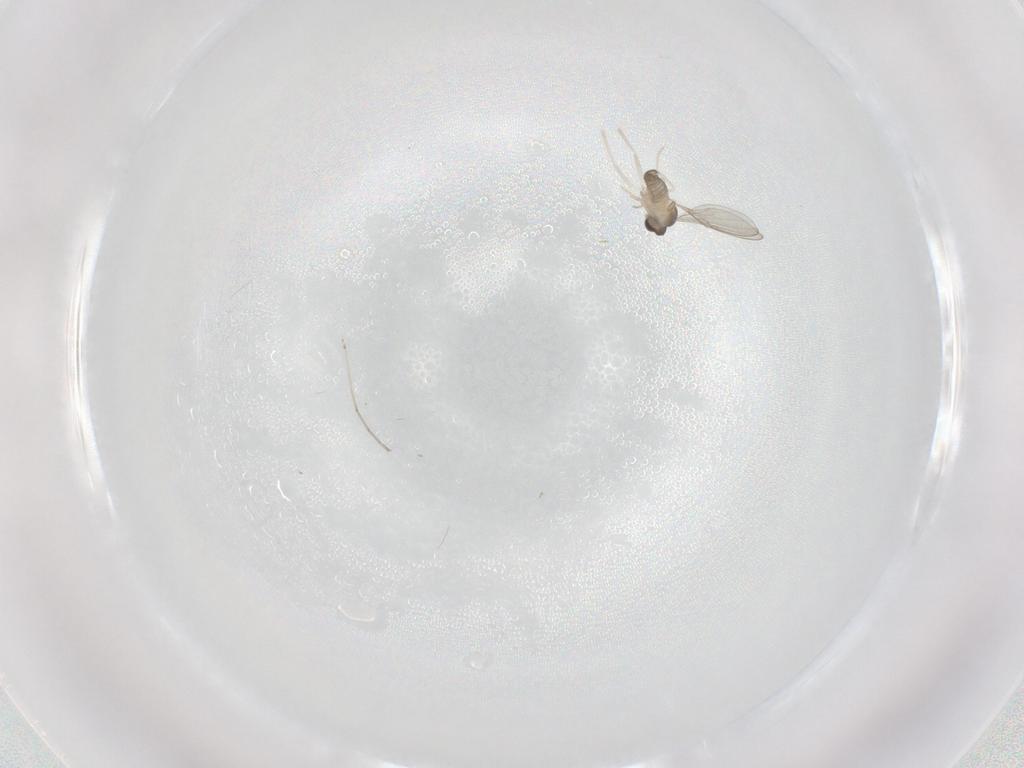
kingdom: Animalia
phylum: Arthropoda
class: Insecta
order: Diptera
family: Cecidomyiidae
